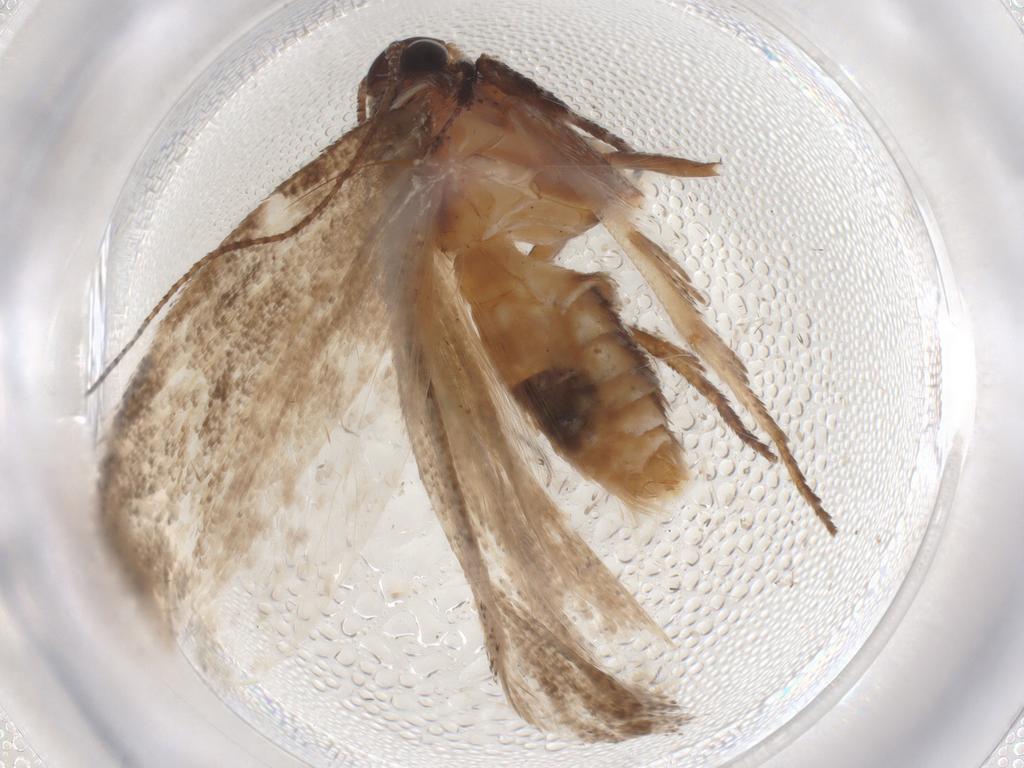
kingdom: Animalia
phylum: Arthropoda
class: Insecta
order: Lepidoptera
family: Cosmopterigidae
